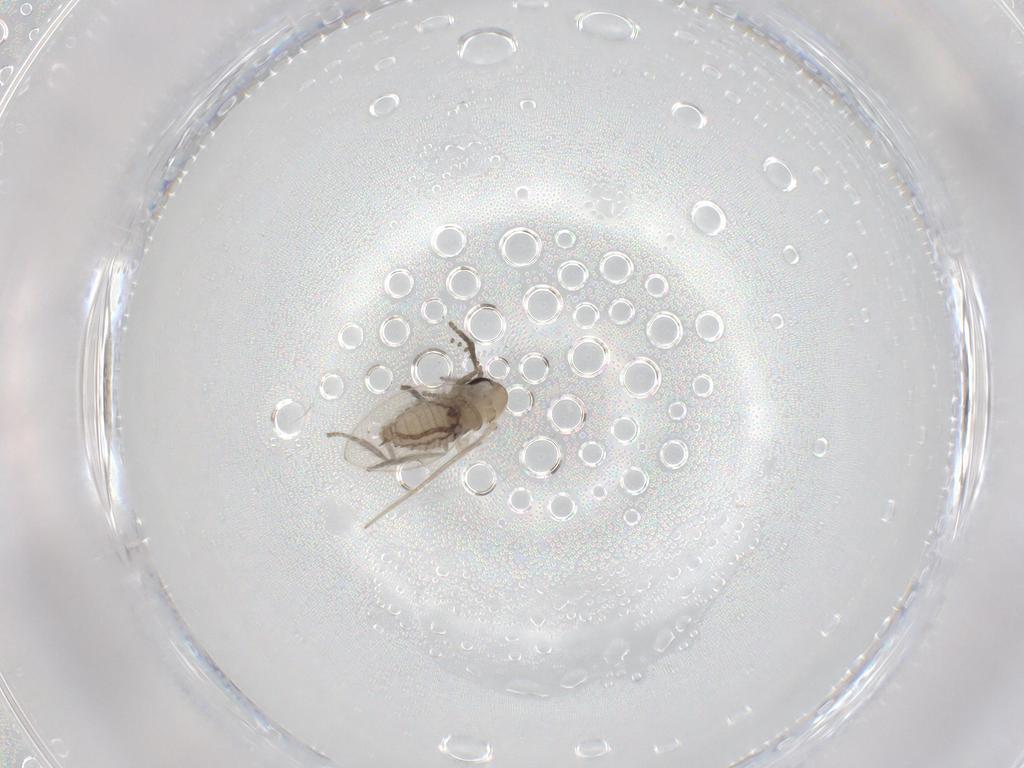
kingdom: Animalia
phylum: Arthropoda
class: Insecta
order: Diptera
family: Psychodidae
